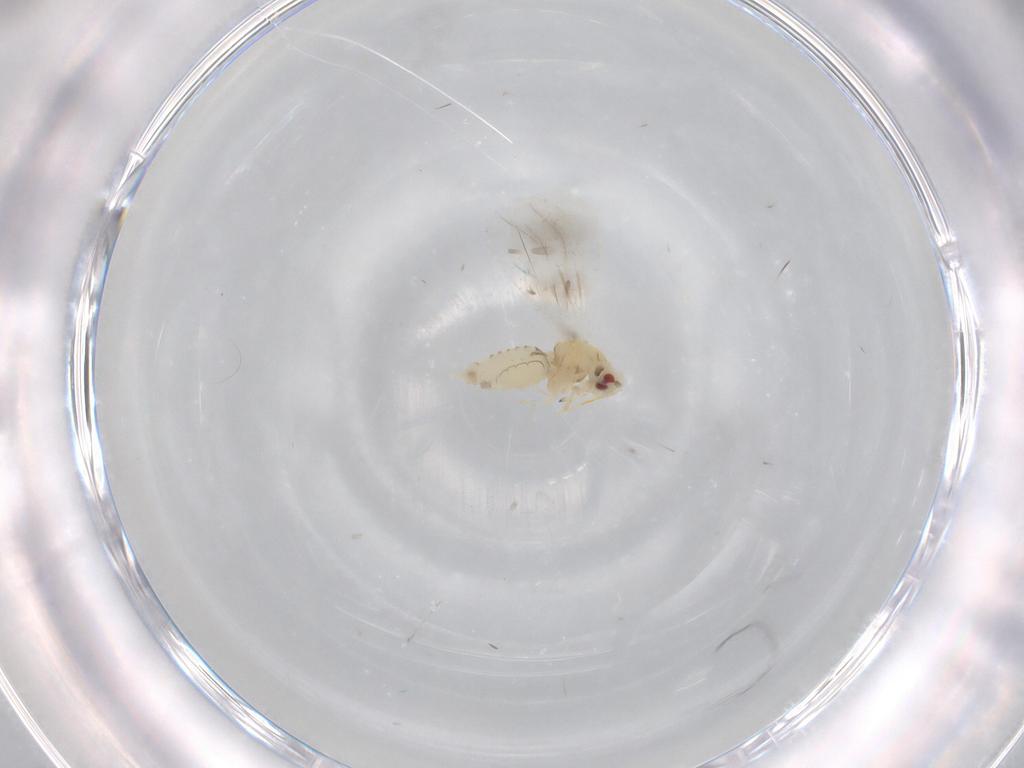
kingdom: Animalia
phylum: Arthropoda
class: Insecta
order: Hemiptera
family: Aleyrodidae
